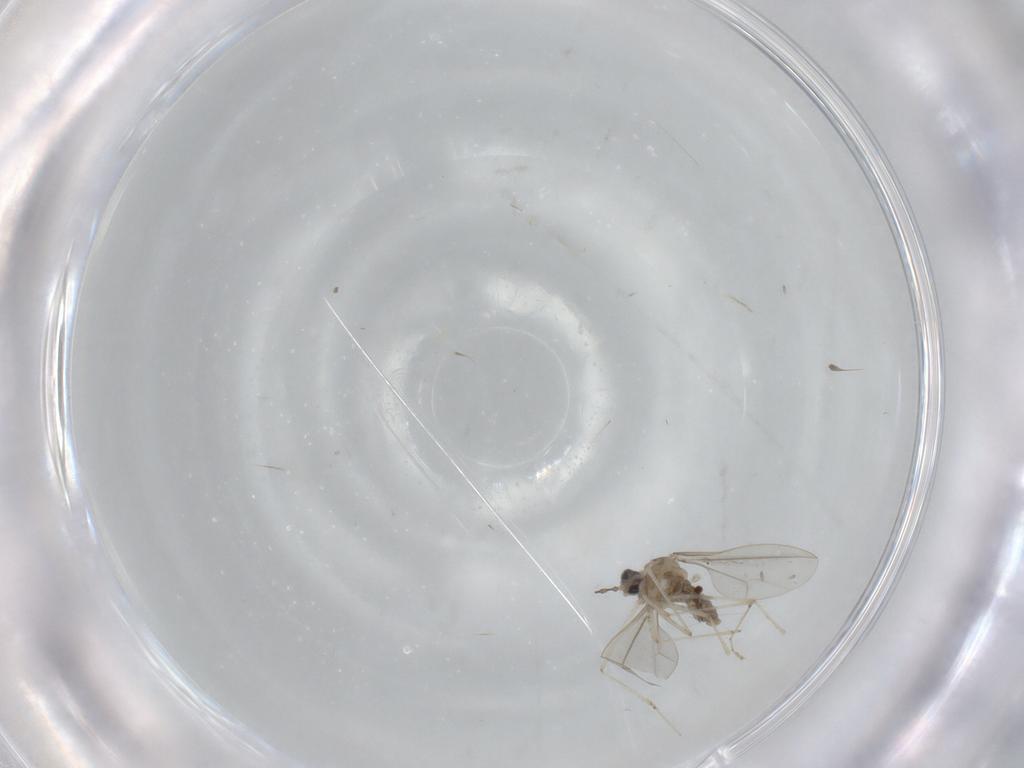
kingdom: Animalia
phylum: Arthropoda
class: Insecta
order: Diptera
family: Cecidomyiidae
